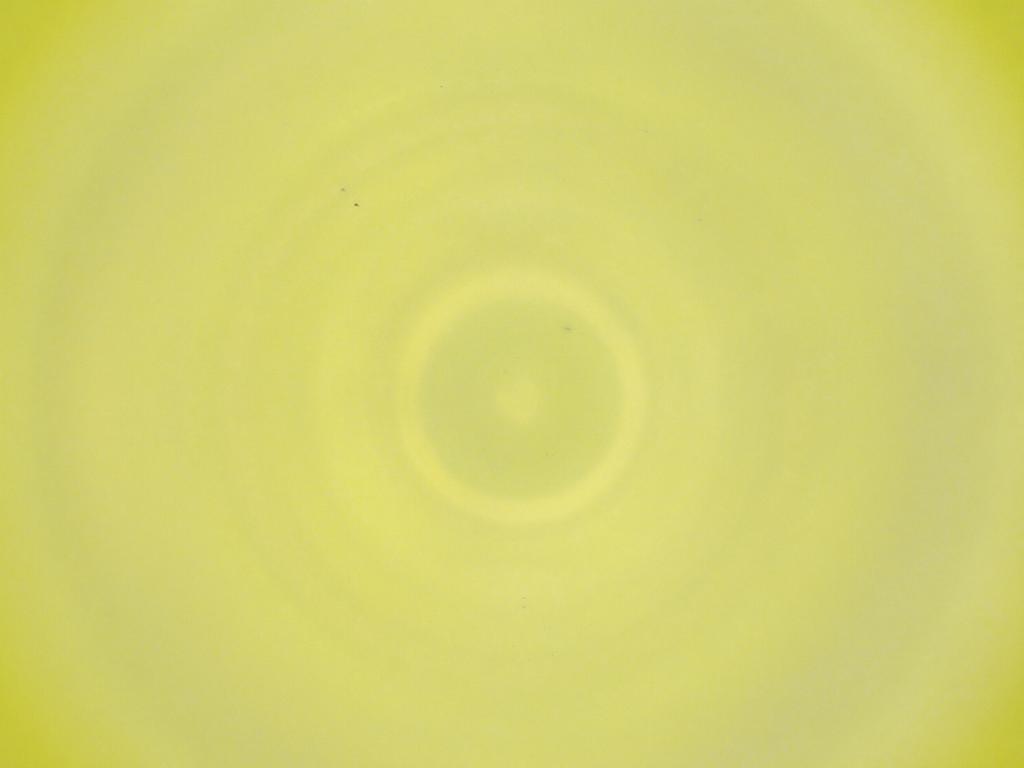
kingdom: Animalia
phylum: Arthropoda
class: Insecta
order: Diptera
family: Cecidomyiidae
